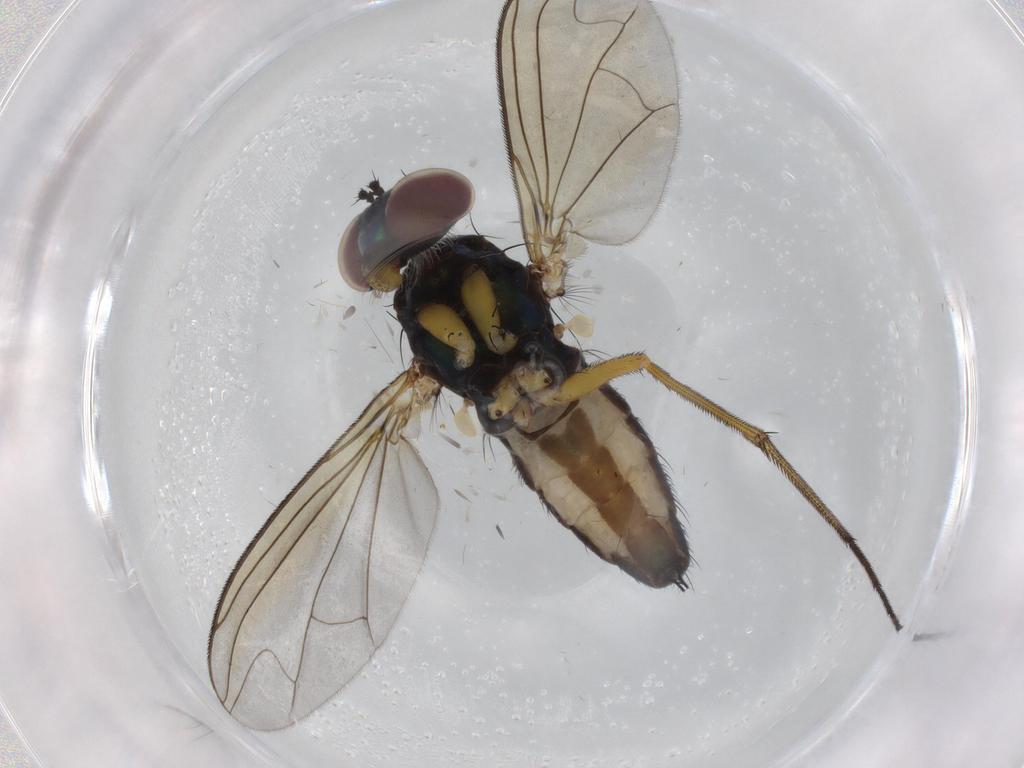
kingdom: Animalia
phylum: Arthropoda
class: Insecta
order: Diptera
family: Dolichopodidae
